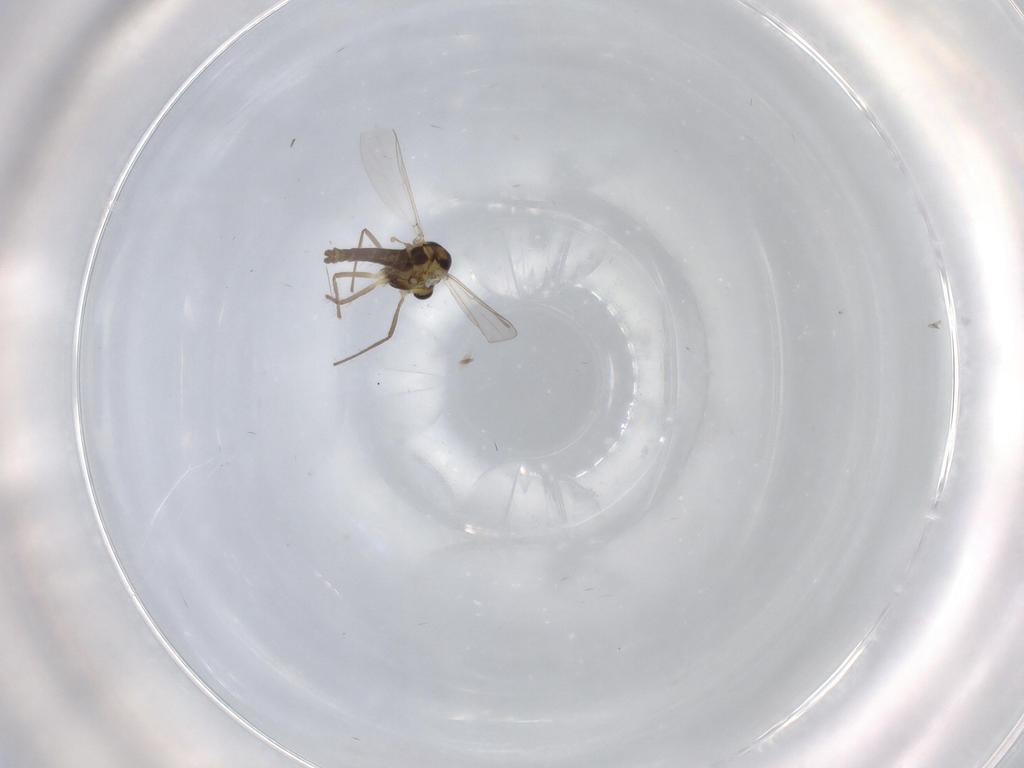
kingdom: Animalia
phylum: Arthropoda
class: Insecta
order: Diptera
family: Chironomidae
